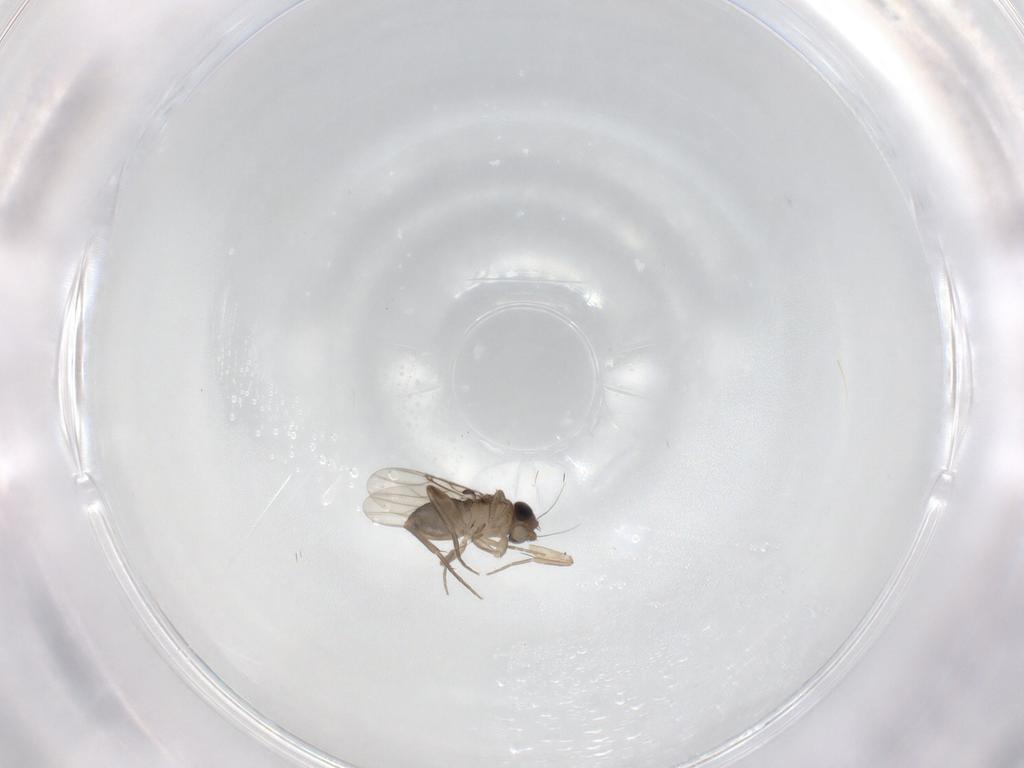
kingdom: Animalia
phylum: Arthropoda
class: Insecta
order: Diptera
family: Phoridae
